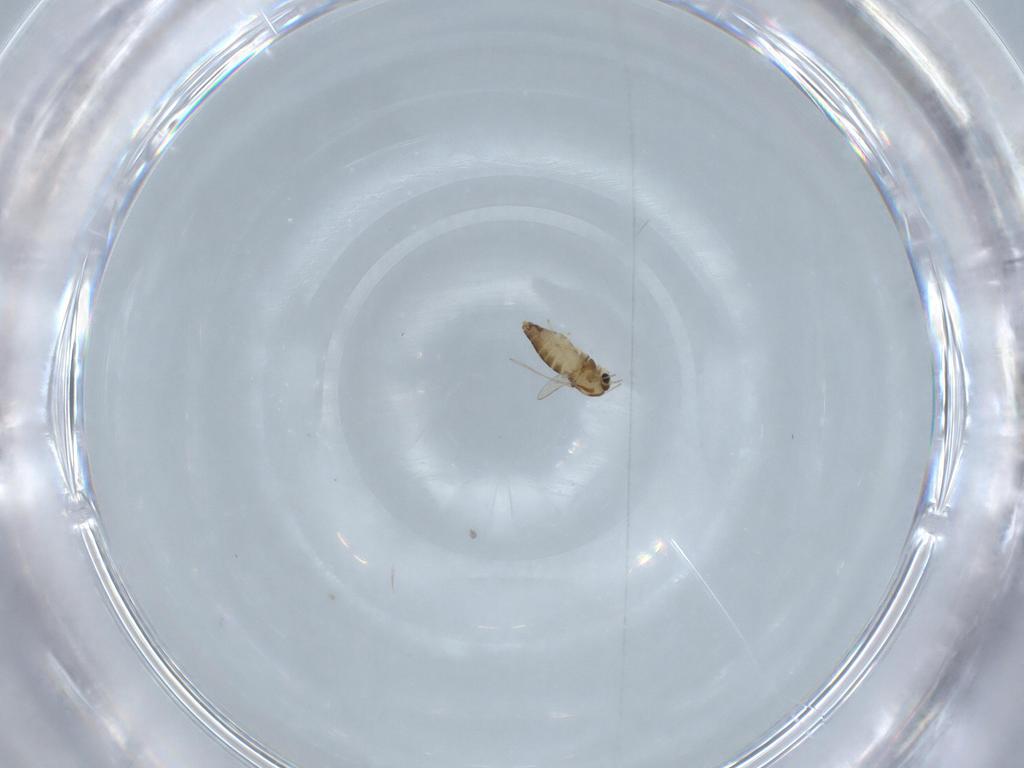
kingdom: Animalia
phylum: Arthropoda
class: Insecta
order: Diptera
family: Chironomidae
